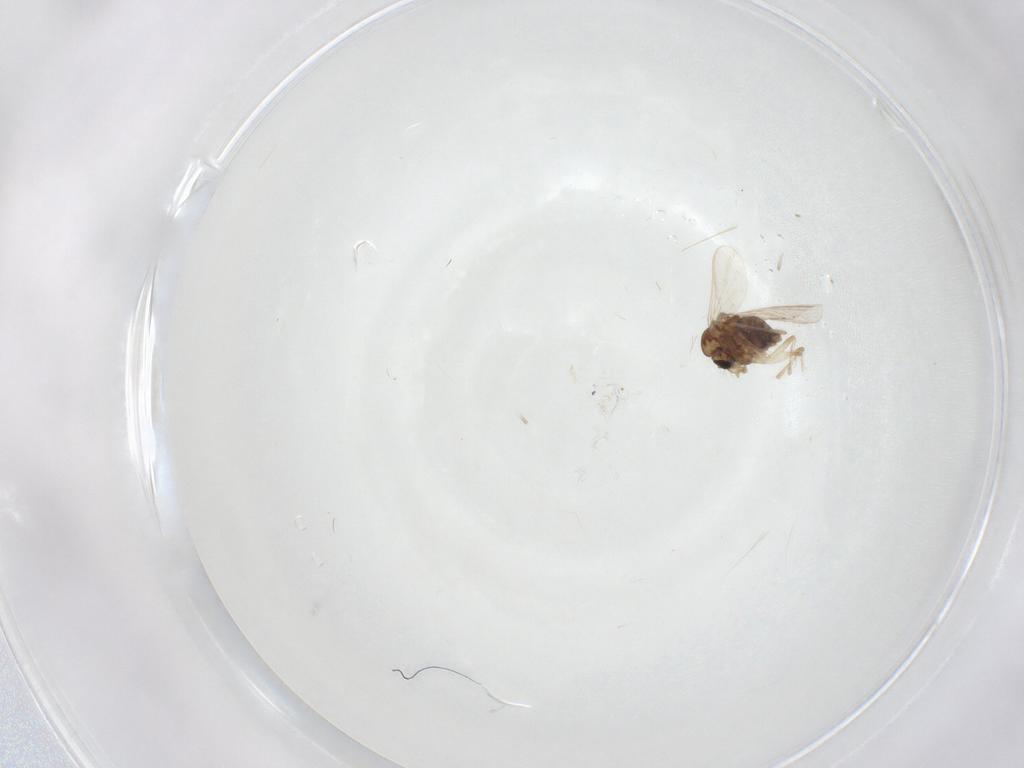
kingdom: Animalia
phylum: Arthropoda
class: Insecta
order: Diptera
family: Chironomidae
